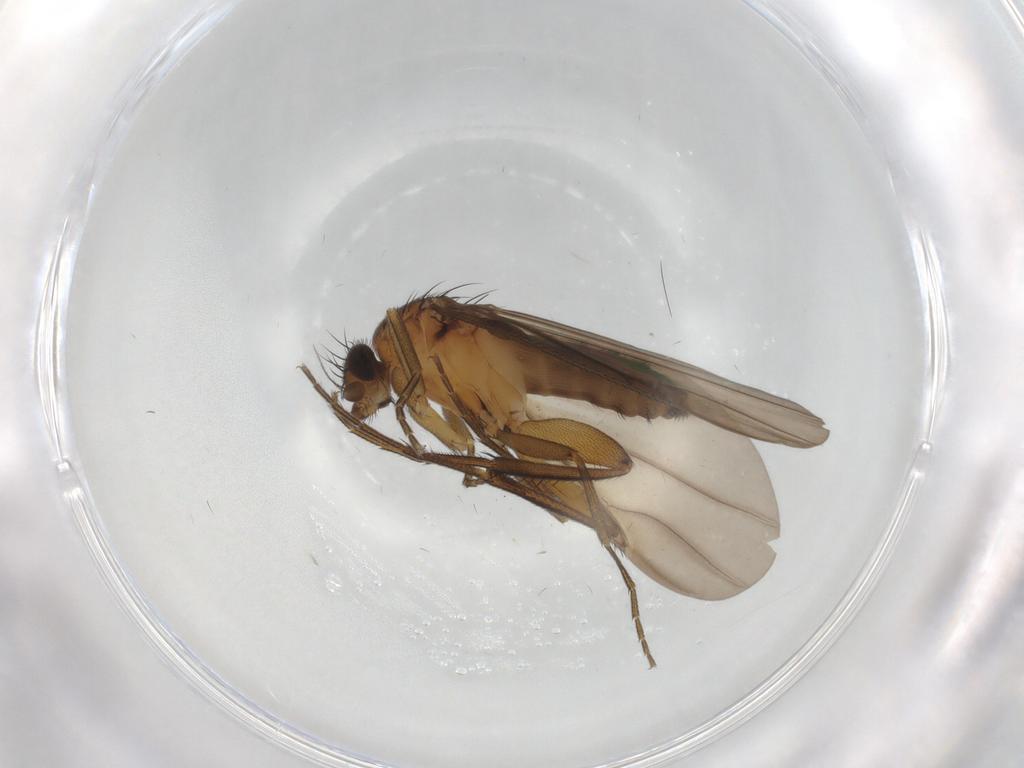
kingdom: Animalia
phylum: Arthropoda
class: Insecta
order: Diptera
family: Phoridae
